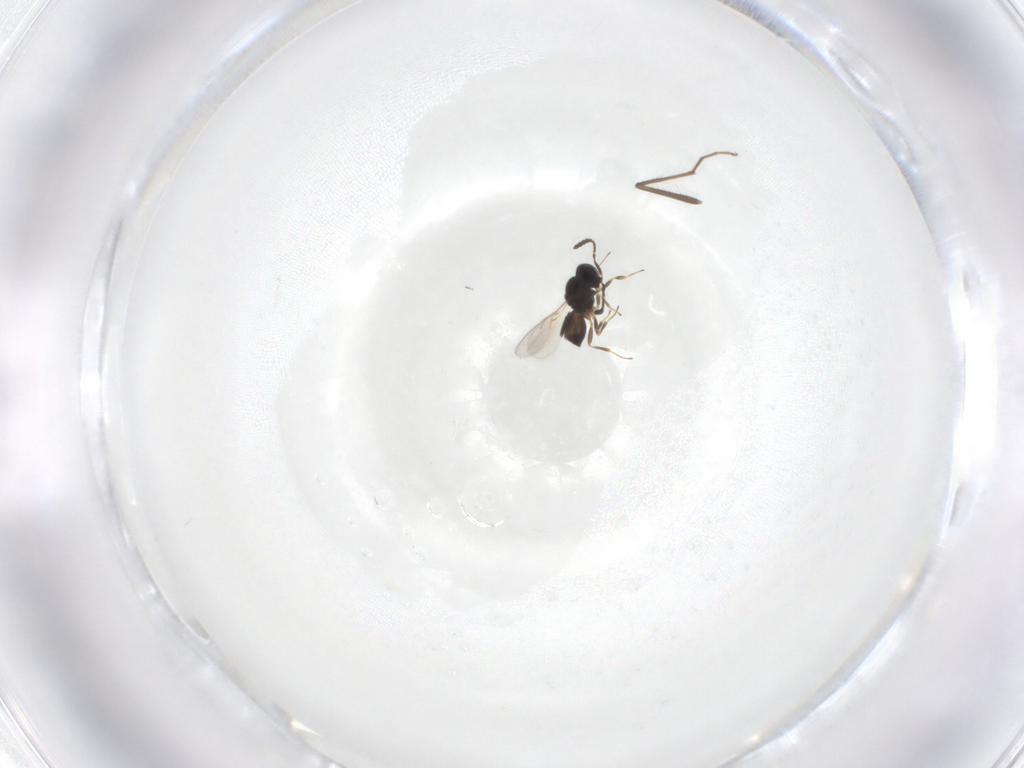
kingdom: Animalia
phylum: Arthropoda
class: Insecta
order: Hymenoptera
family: Scelionidae
